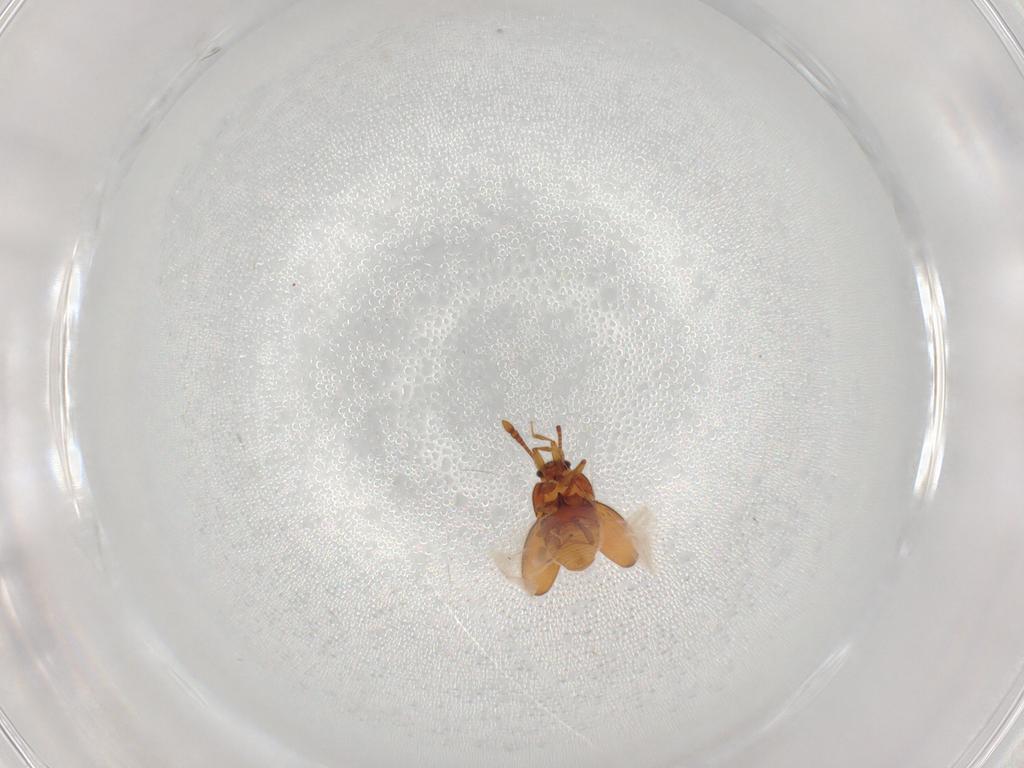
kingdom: Animalia
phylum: Arthropoda
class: Insecta
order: Coleoptera
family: Staphylinidae
